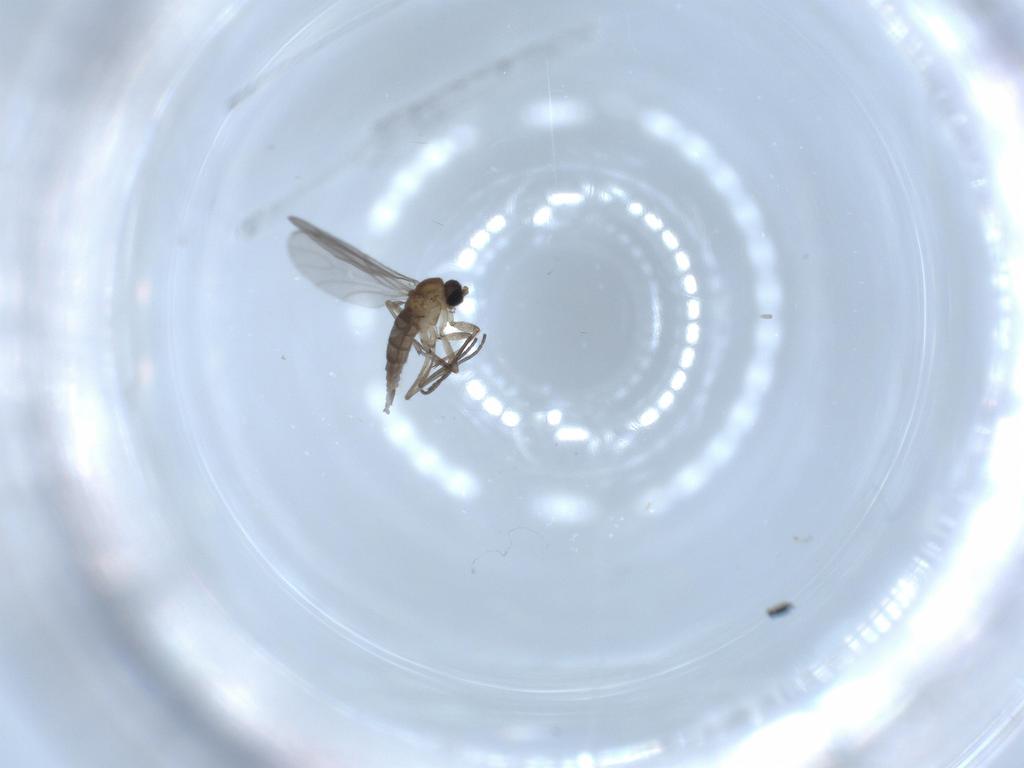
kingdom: Animalia
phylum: Arthropoda
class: Insecta
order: Diptera
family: Sciaridae
